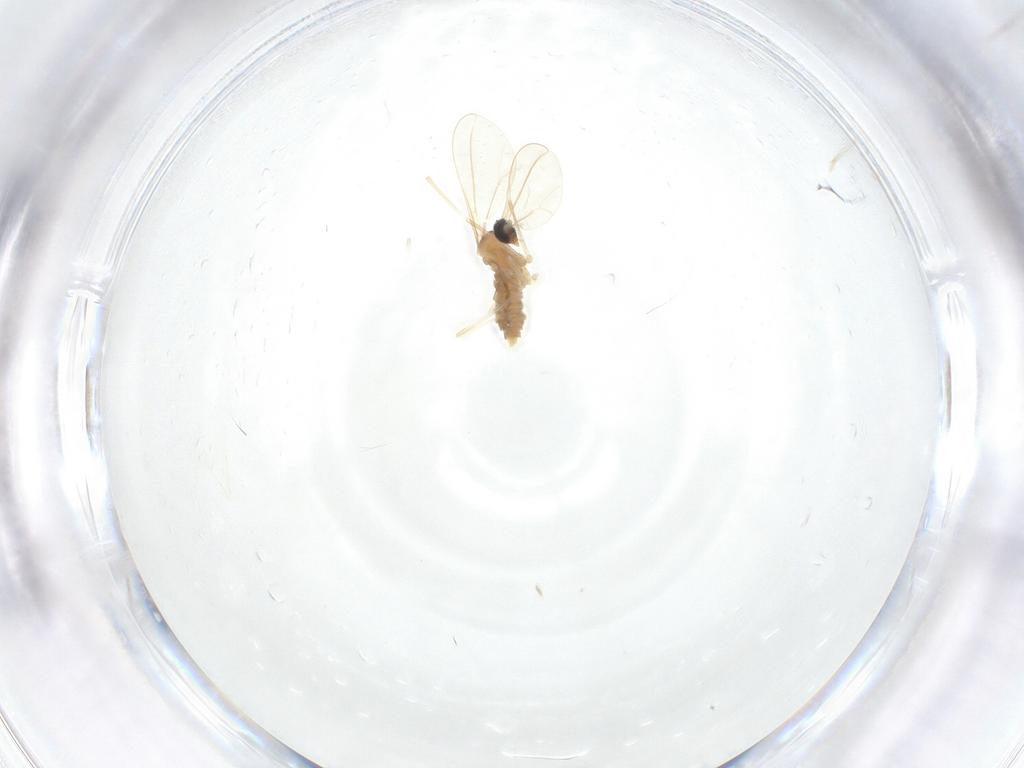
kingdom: Animalia
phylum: Arthropoda
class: Insecta
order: Diptera
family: Cecidomyiidae
